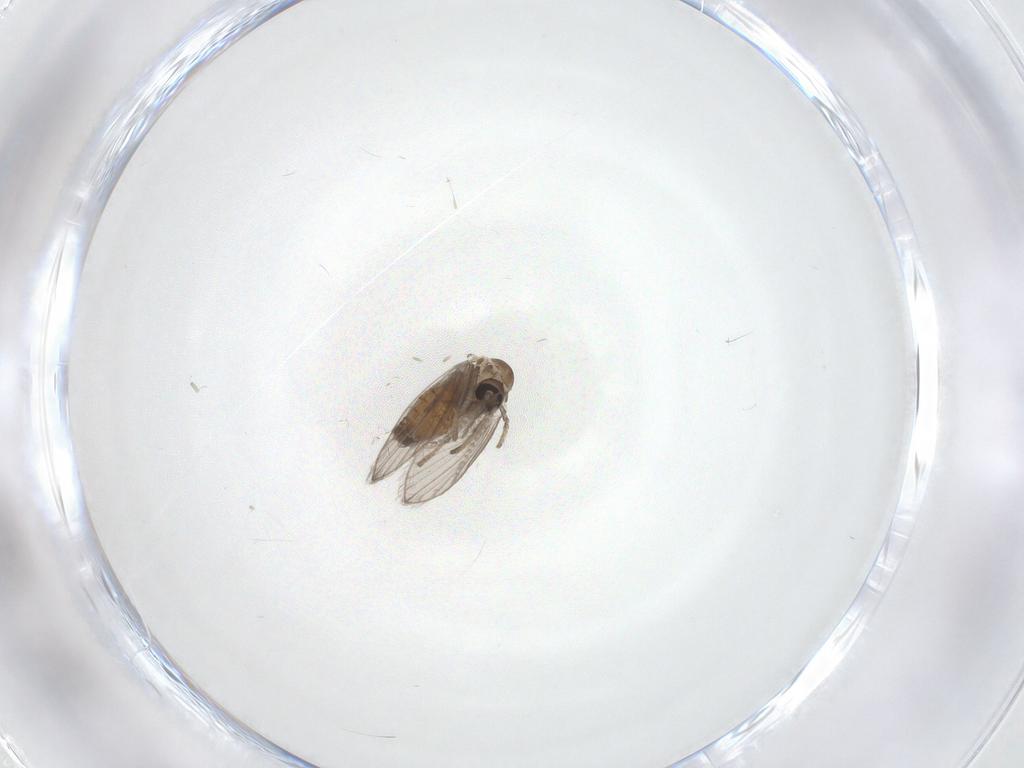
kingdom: Animalia
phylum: Arthropoda
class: Insecta
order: Diptera
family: Psychodidae
